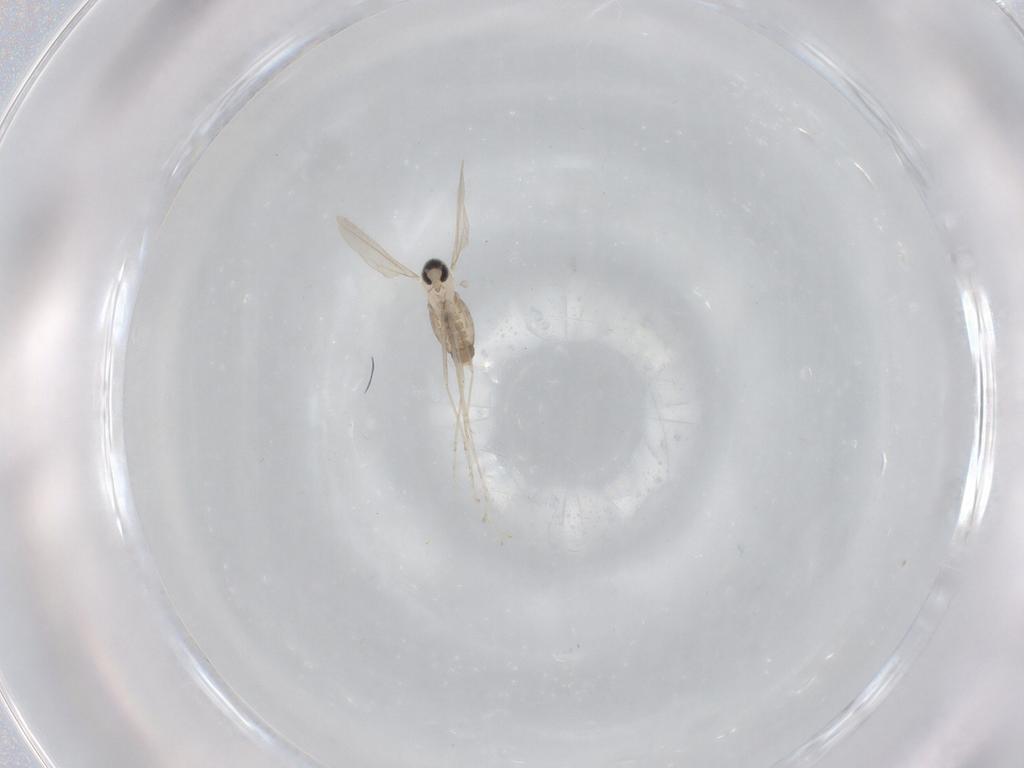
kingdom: Animalia
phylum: Arthropoda
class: Insecta
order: Diptera
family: Cecidomyiidae
